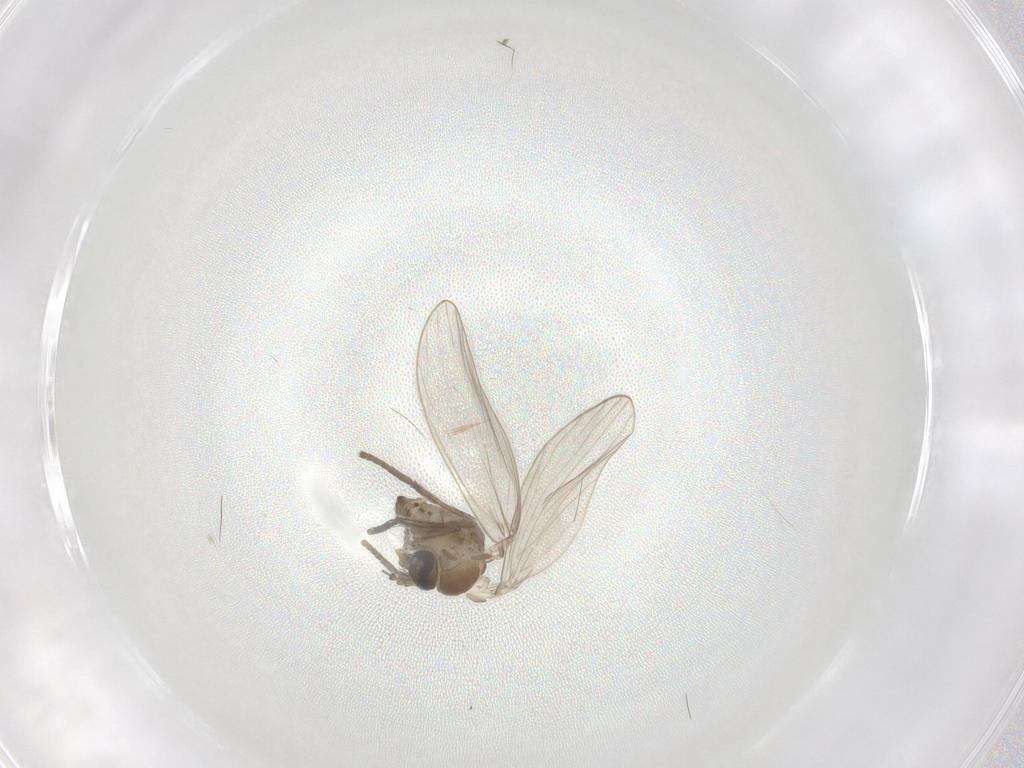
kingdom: Animalia
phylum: Arthropoda
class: Insecta
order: Diptera
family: Psychodidae
